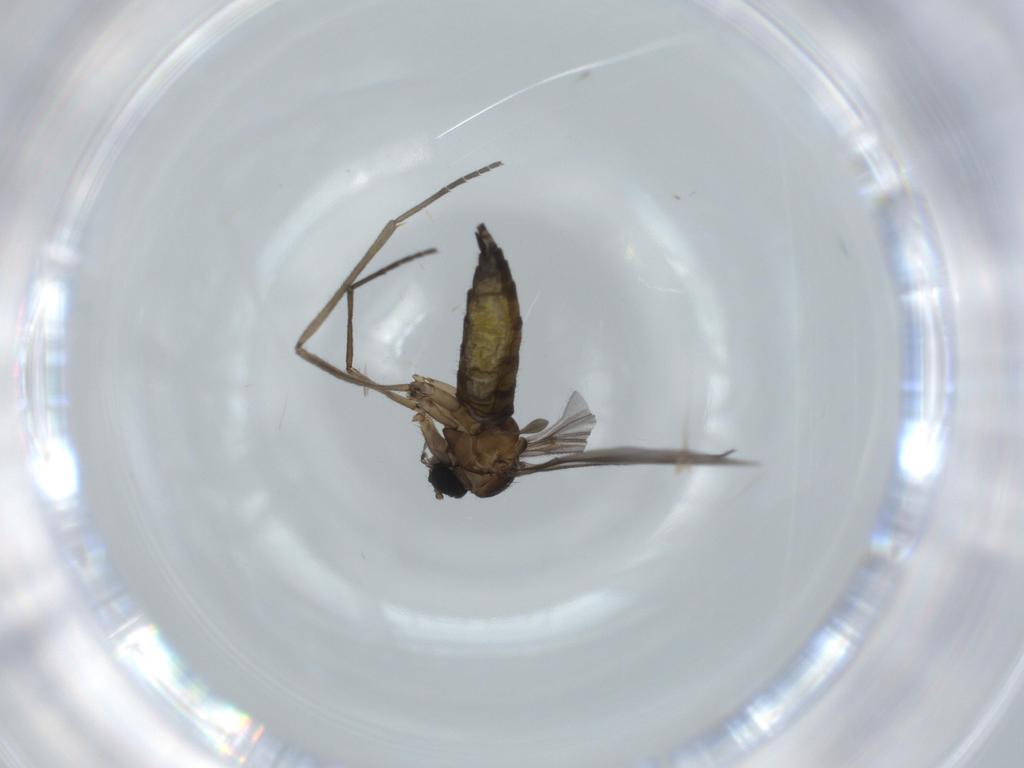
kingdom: Animalia
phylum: Arthropoda
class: Insecta
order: Diptera
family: Sciaridae
